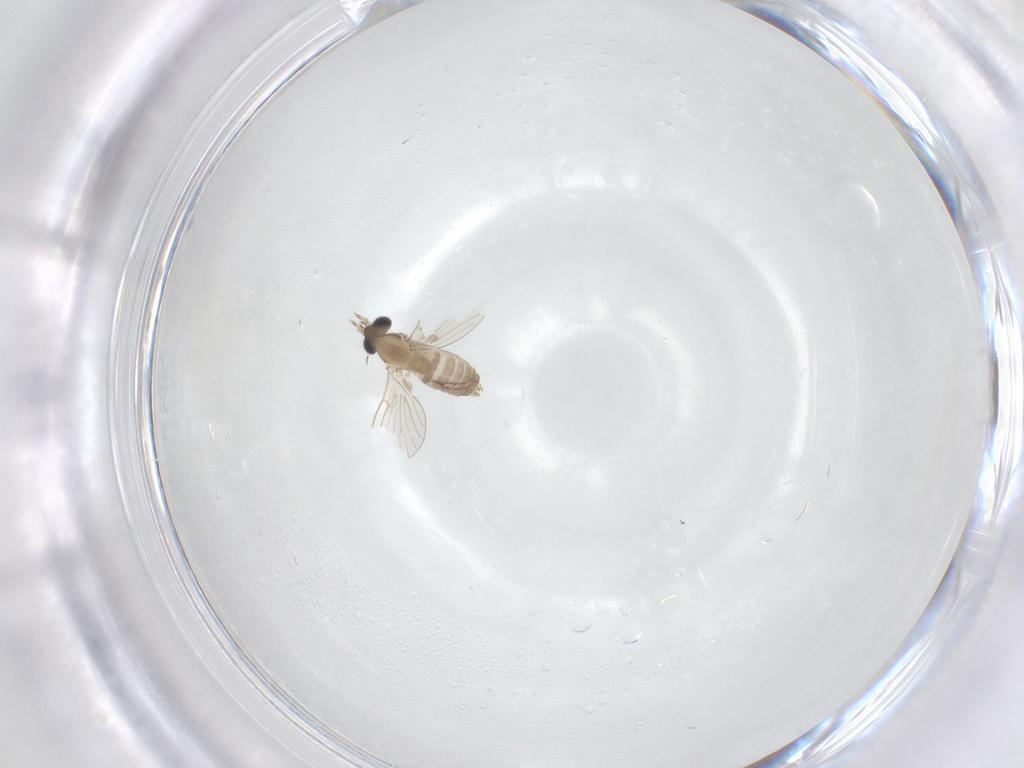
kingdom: Animalia
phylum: Arthropoda
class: Insecta
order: Diptera
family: Psychodidae
